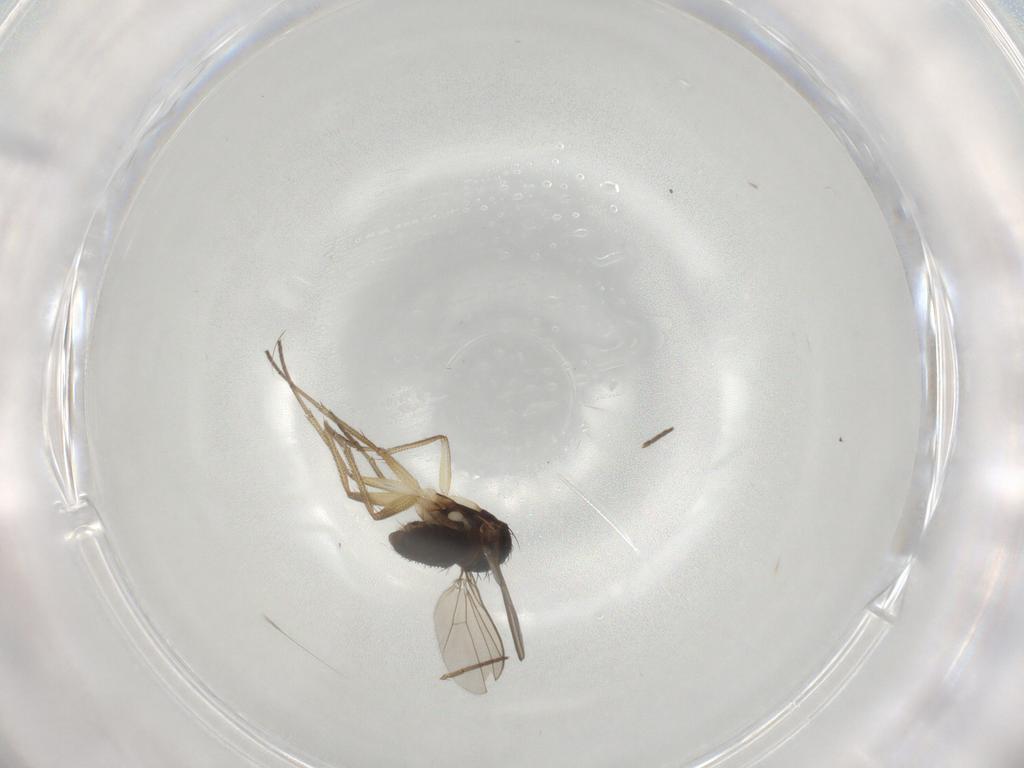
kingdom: Animalia
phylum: Arthropoda
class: Insecta
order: Diptera
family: Dolichopodidae
